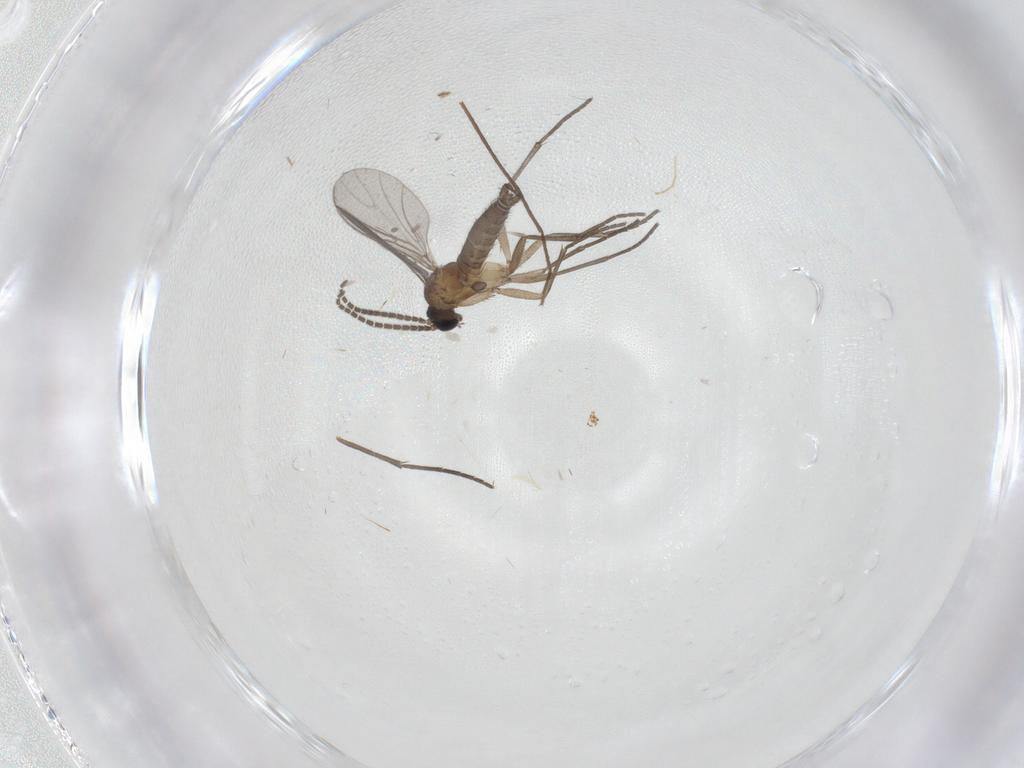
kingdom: Animalia
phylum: Arthropoda
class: Insecta
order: Diptera
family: Sciaridae
